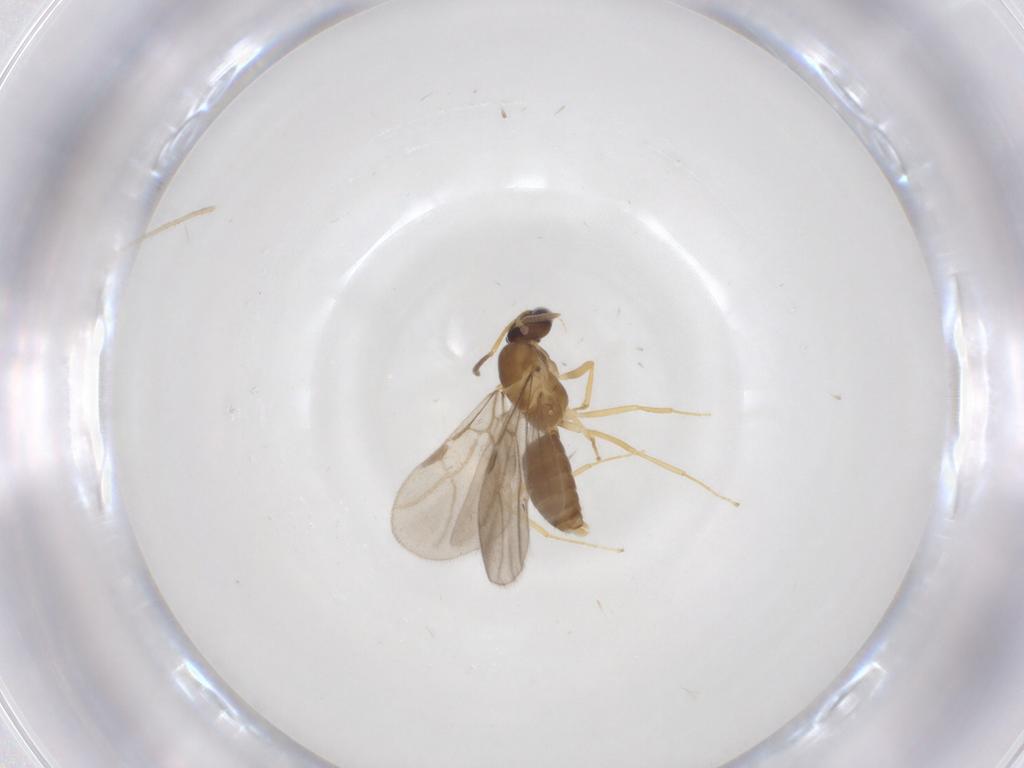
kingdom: Animalia
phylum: Arthropoda
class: Insecta
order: Hymenoptera
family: Formicidae
